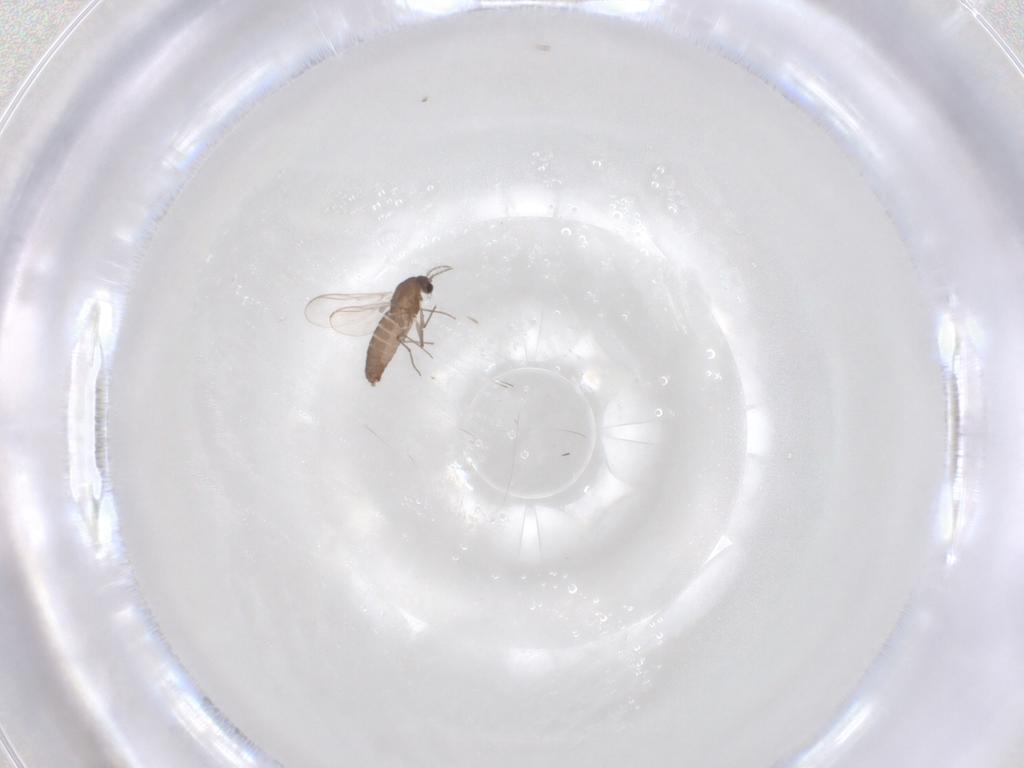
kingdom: Animalia
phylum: Arthropoda
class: Insecta
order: Diptera
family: Chironomidae
